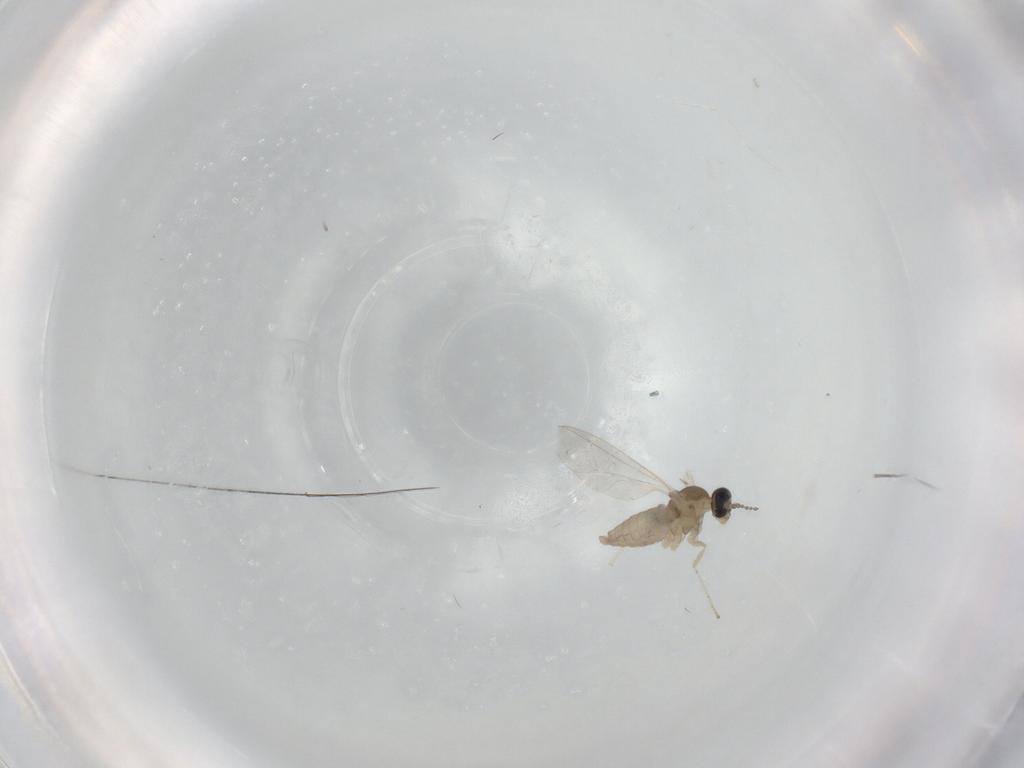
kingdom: Animalia
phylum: Arthropoda
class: Insecta
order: Diptera
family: Cecidomyiidae
